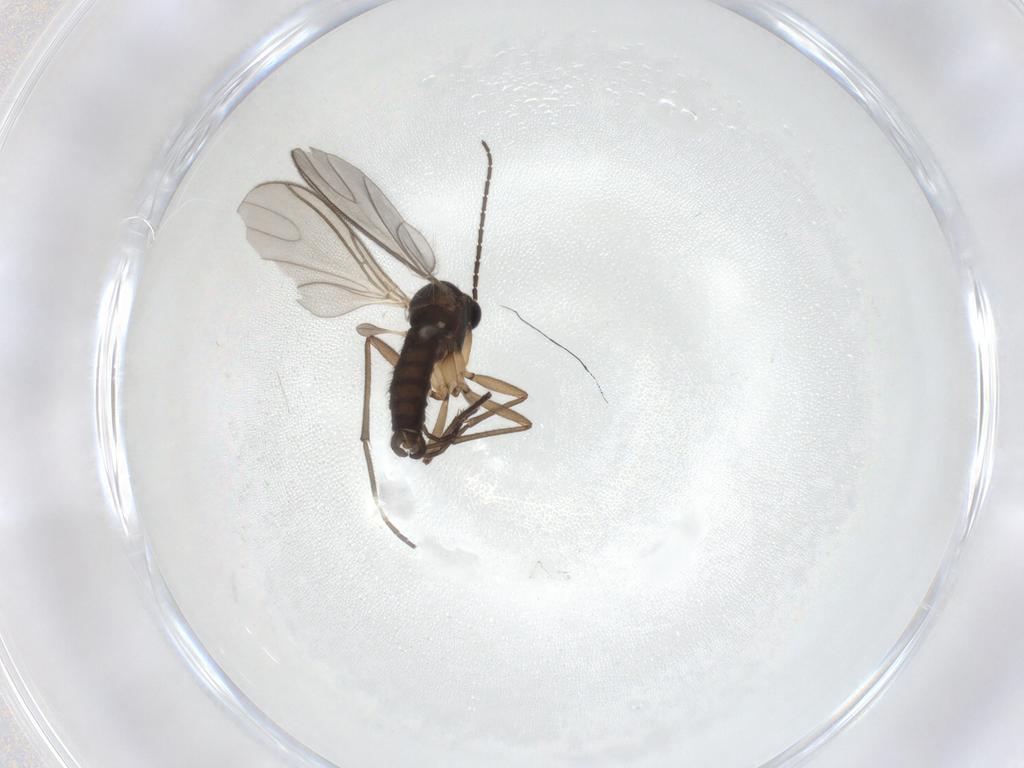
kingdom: Animalia
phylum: Arthropoda
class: Insecta
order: Diptera
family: Sciaridae
